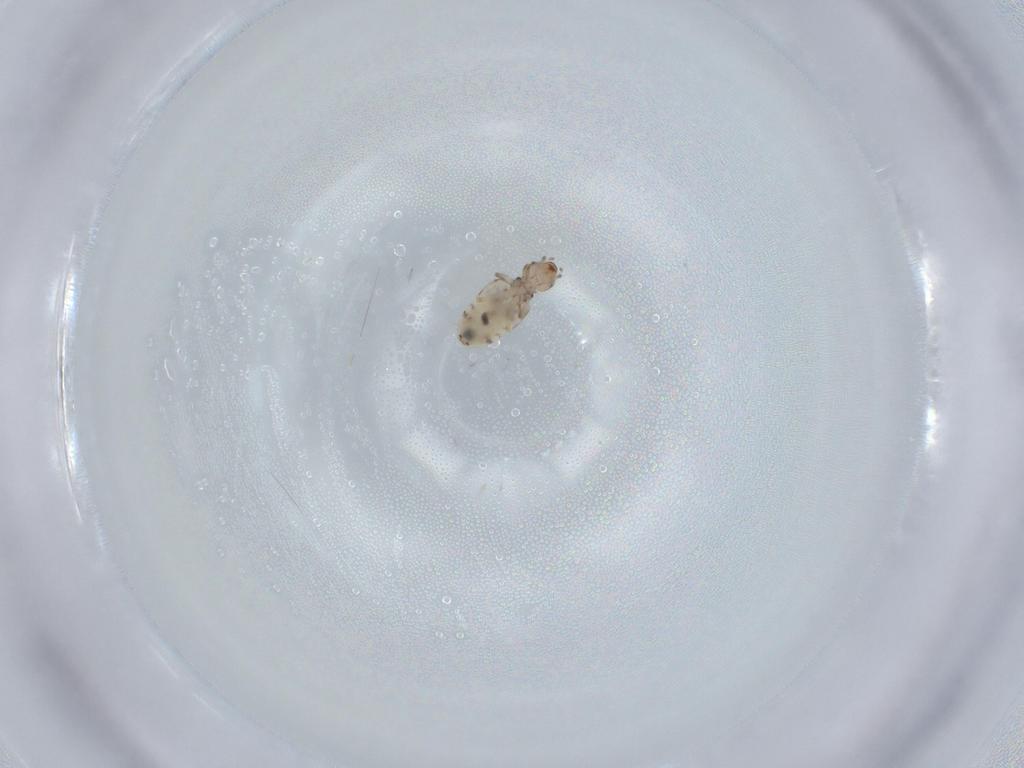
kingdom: Animalia
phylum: Arthropoda
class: Insecta
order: Psocodea
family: Liposcelididae
